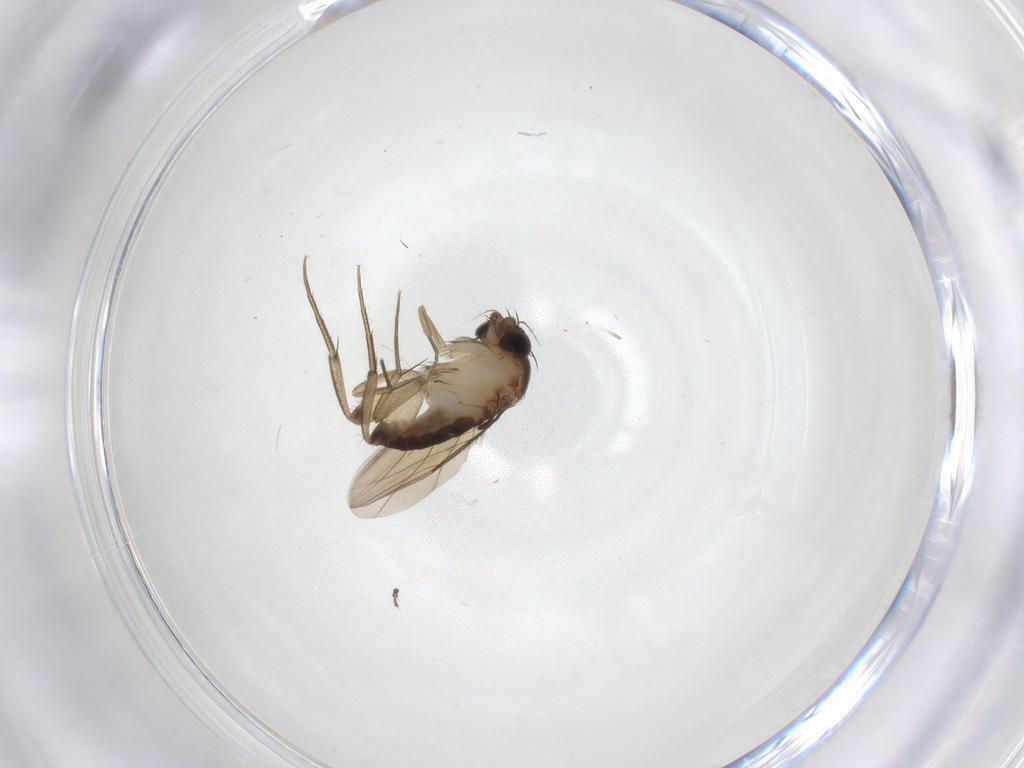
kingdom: Animalia
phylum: Arthropoda
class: Insecta
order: Diptera
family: Phoridae
